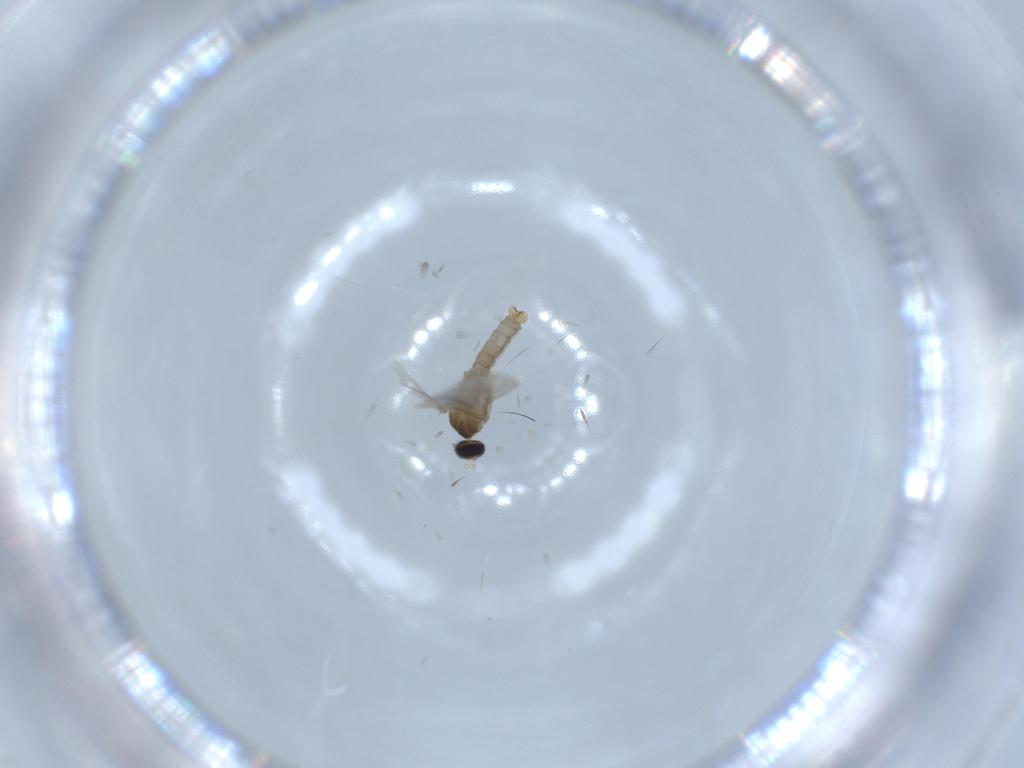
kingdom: Animalia
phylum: Arthropoda
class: Insecta
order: Diptera
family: Cecidomyiidae
